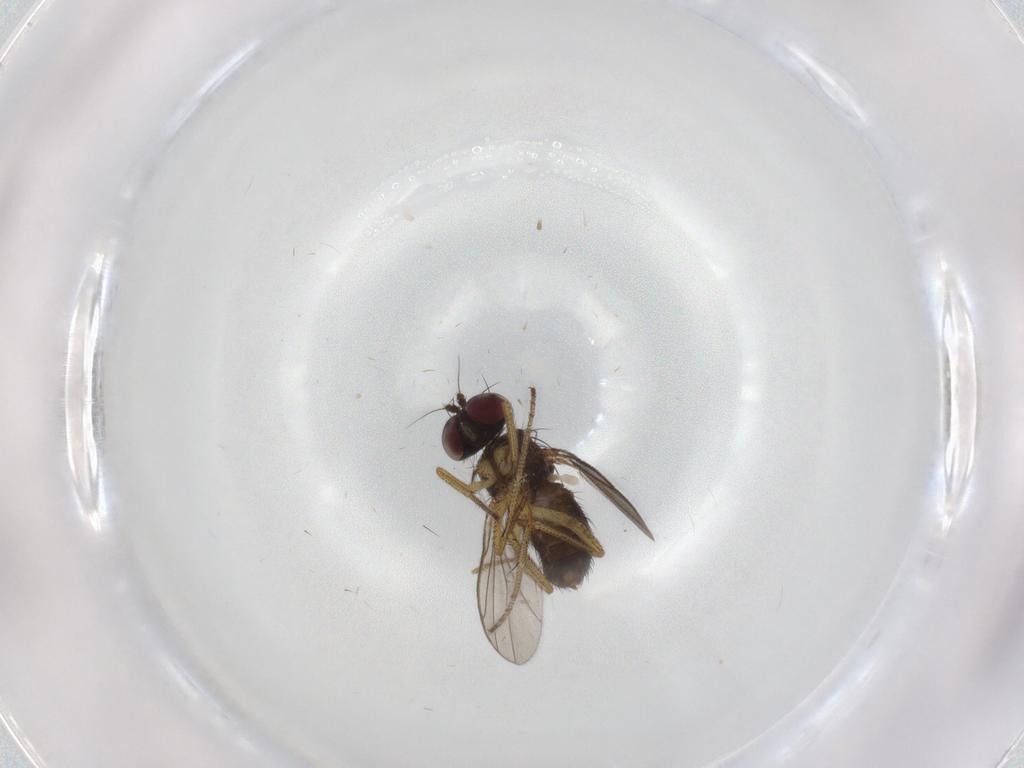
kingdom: Animalia
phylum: Arthropoda
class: Insecta
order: Diptera
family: Chironomidae
